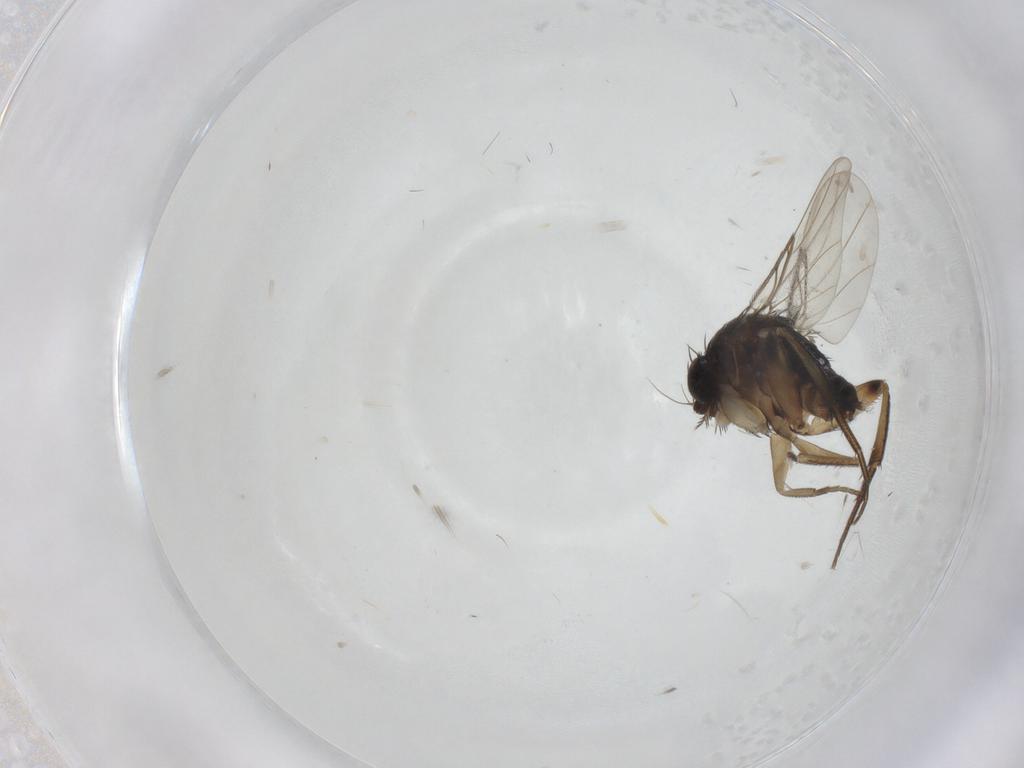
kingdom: Animalia
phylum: Arthropoda
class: Insecta
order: Diptera
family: Phoridae
